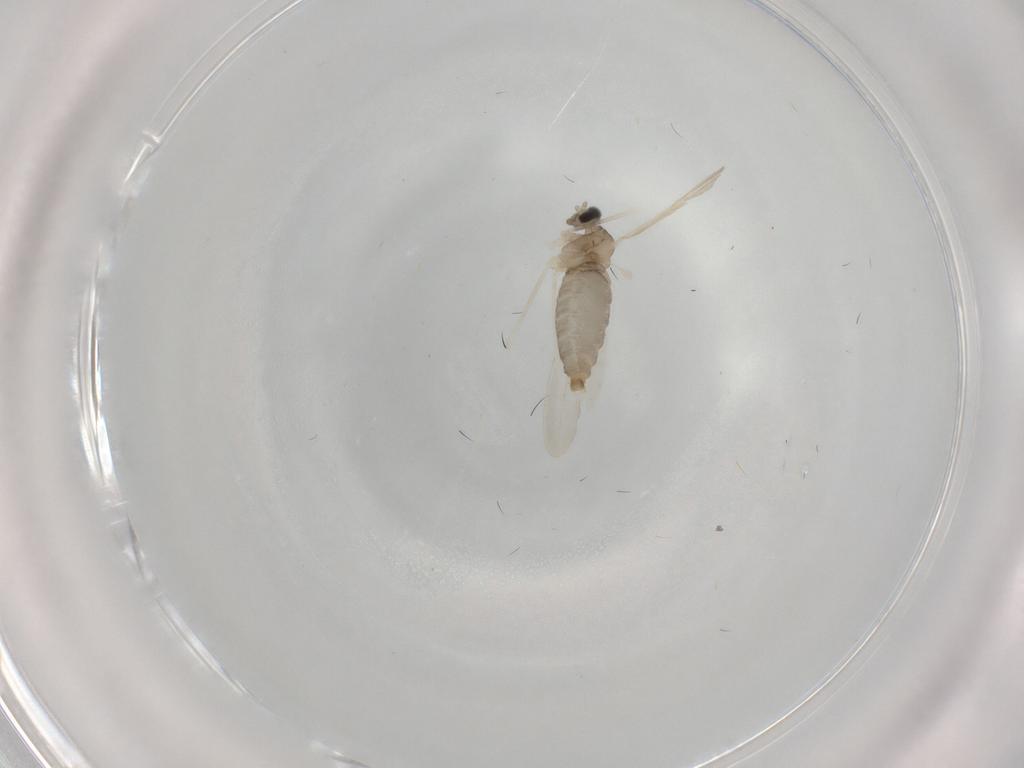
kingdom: Animalia
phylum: Arthropoda
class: Insecta
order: Diptera
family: Cecidomyiidae
